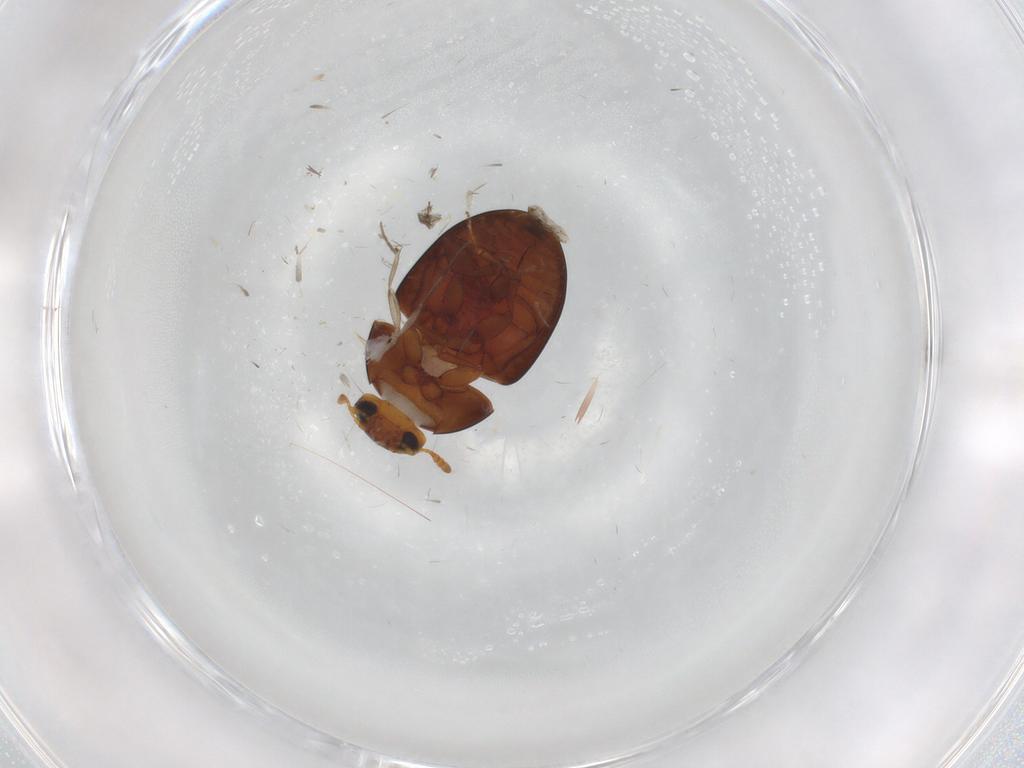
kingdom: Animalia
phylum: Arthropoda
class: Insecta
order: Coleoptera
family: Phalacridae
